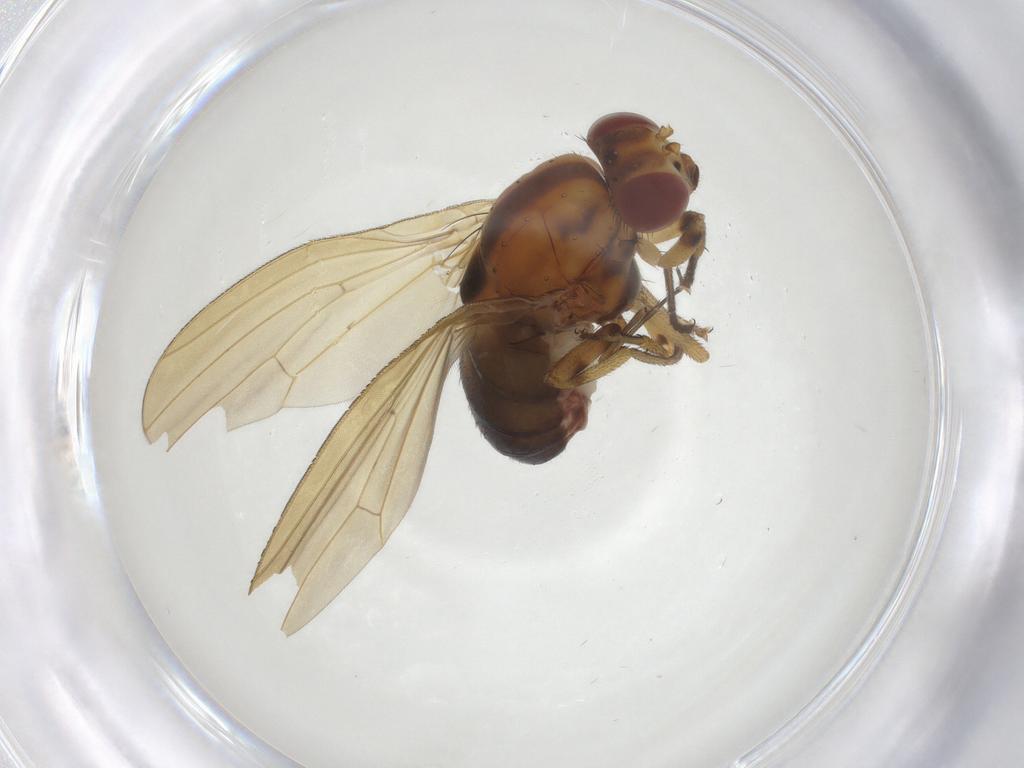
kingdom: Animalia
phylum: Arthropoda
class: Insecta
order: Diptera
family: Sciaridae
